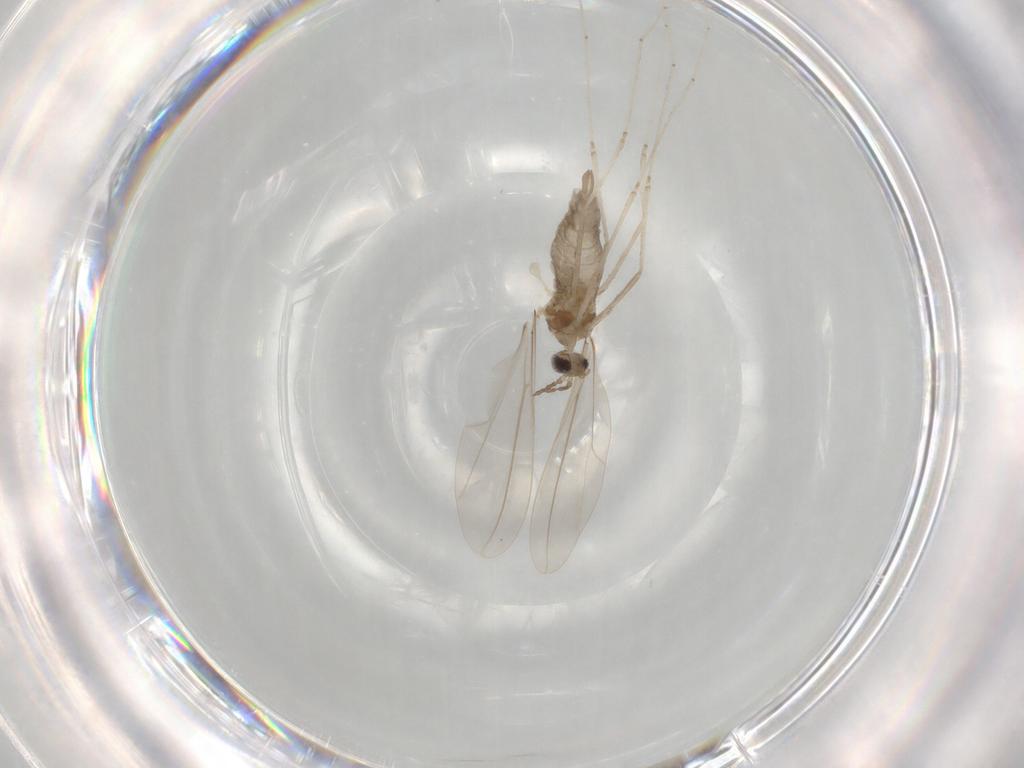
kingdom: Animalia
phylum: Arthropoda
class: Insecta
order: Diptera
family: Cecidomyiidae
